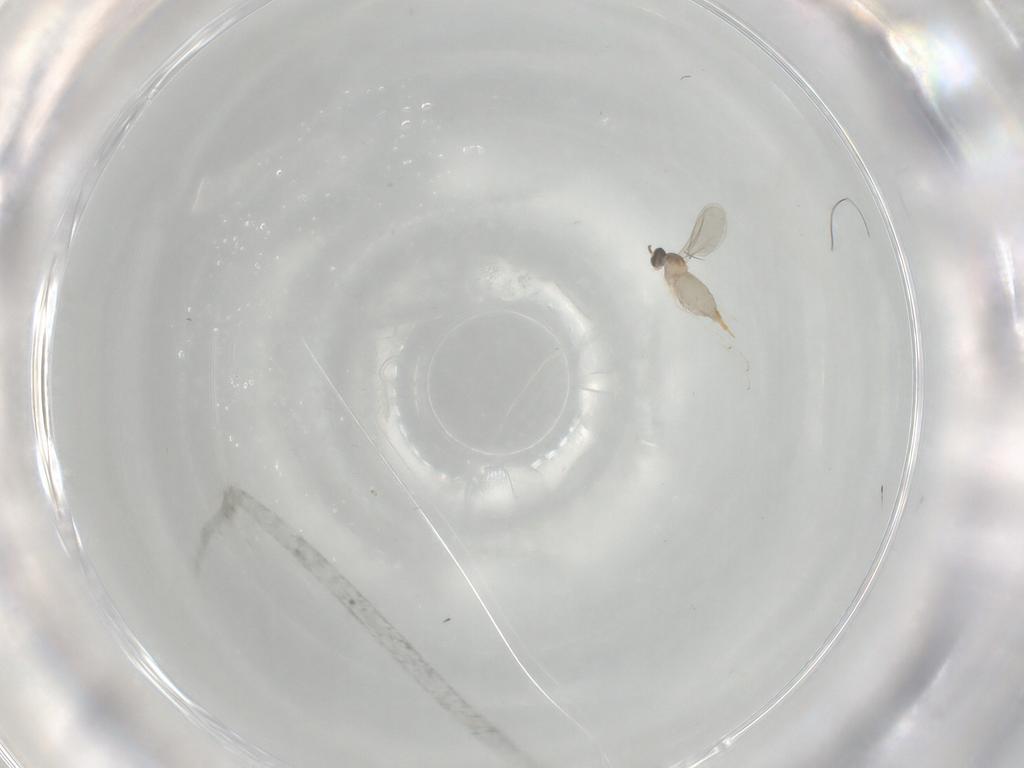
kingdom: Animalia
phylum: Arthropoda
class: Insecta
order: Diptera
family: Cecidomyiidae
